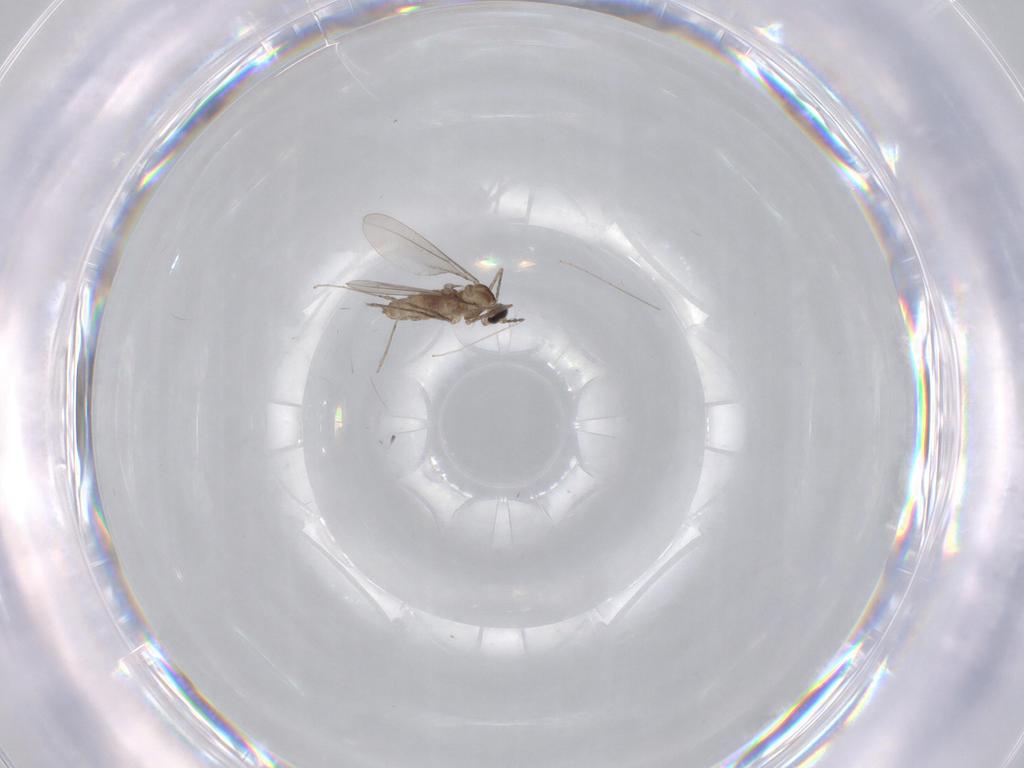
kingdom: Animalia
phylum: Arthropoda
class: Insecta
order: Diptera
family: Cecidomyiidae
